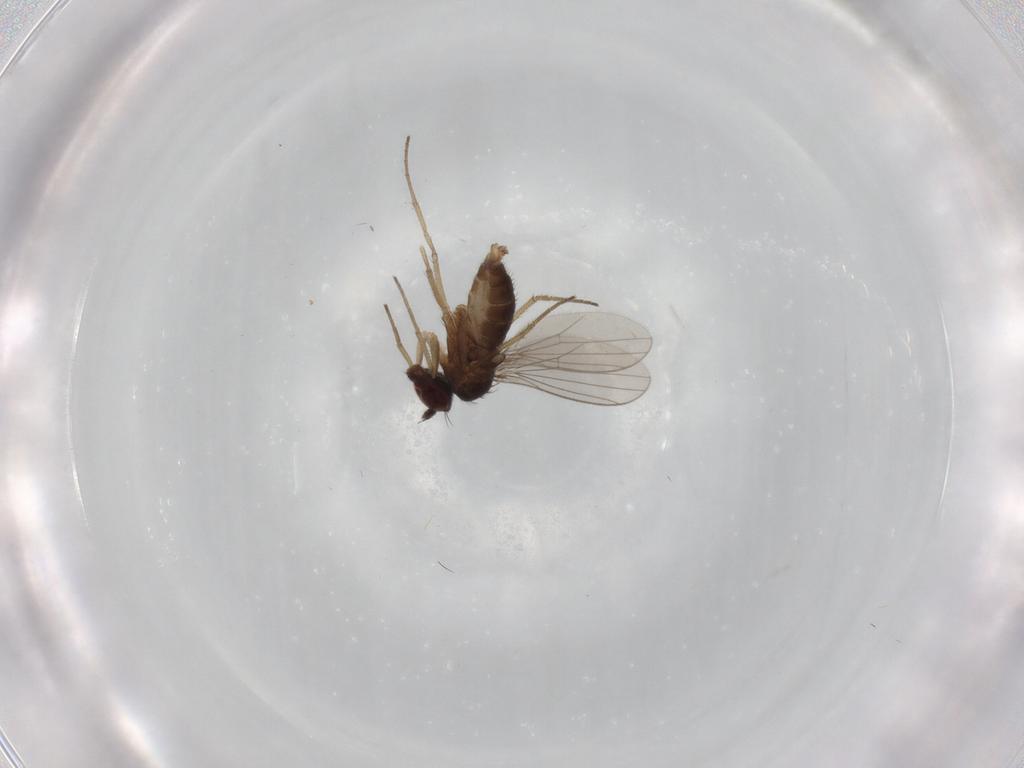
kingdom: Animalia
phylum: Arthropoda
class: Insecta
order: Diptera
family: Dolichopodidae
